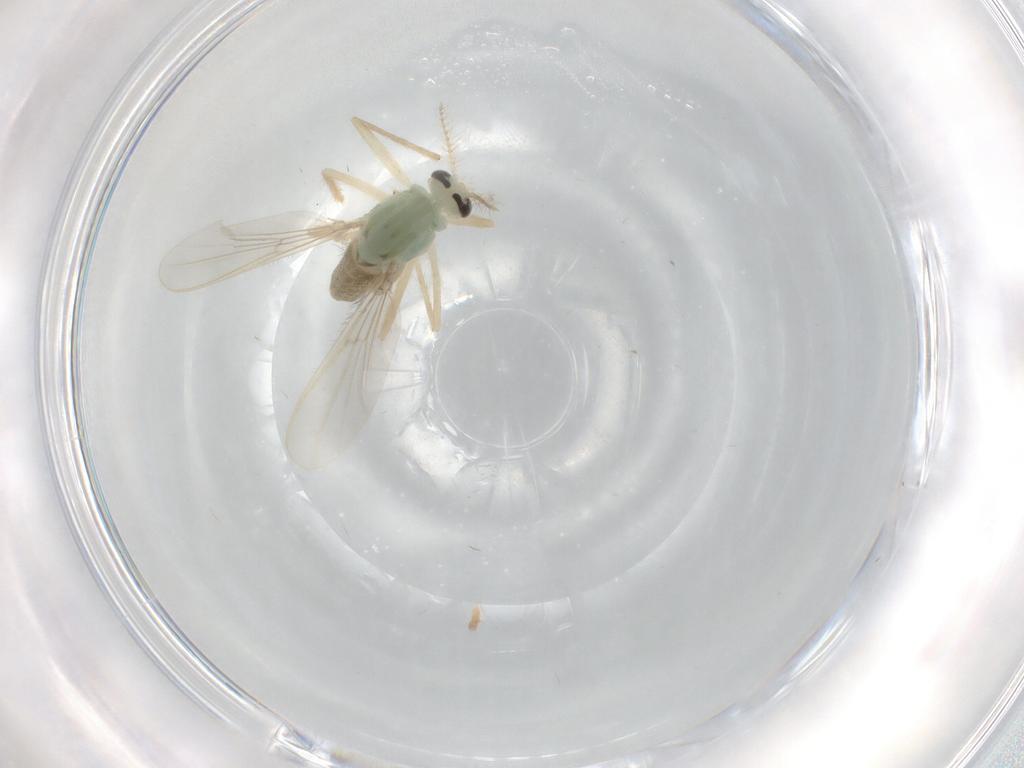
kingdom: Animalia
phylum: Arthropoda
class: Insecta
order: Diptera
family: Chironomidae
